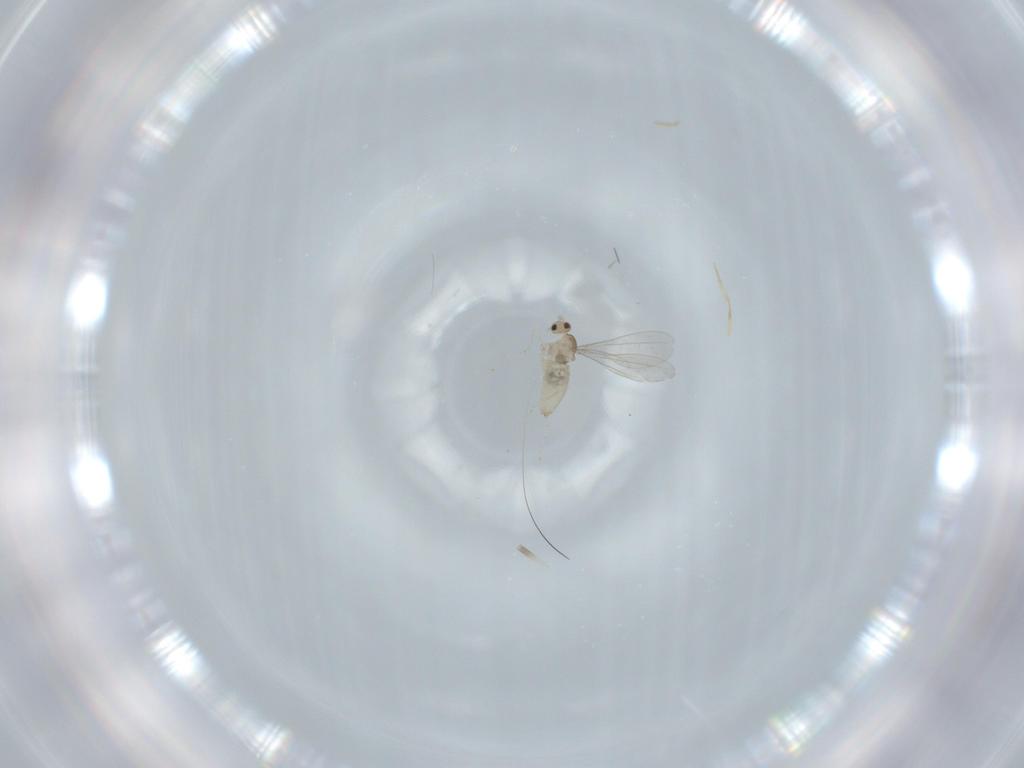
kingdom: Animalia
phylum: Arthropoda
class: Insecta
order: Diptera
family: Cecidomyiidae
